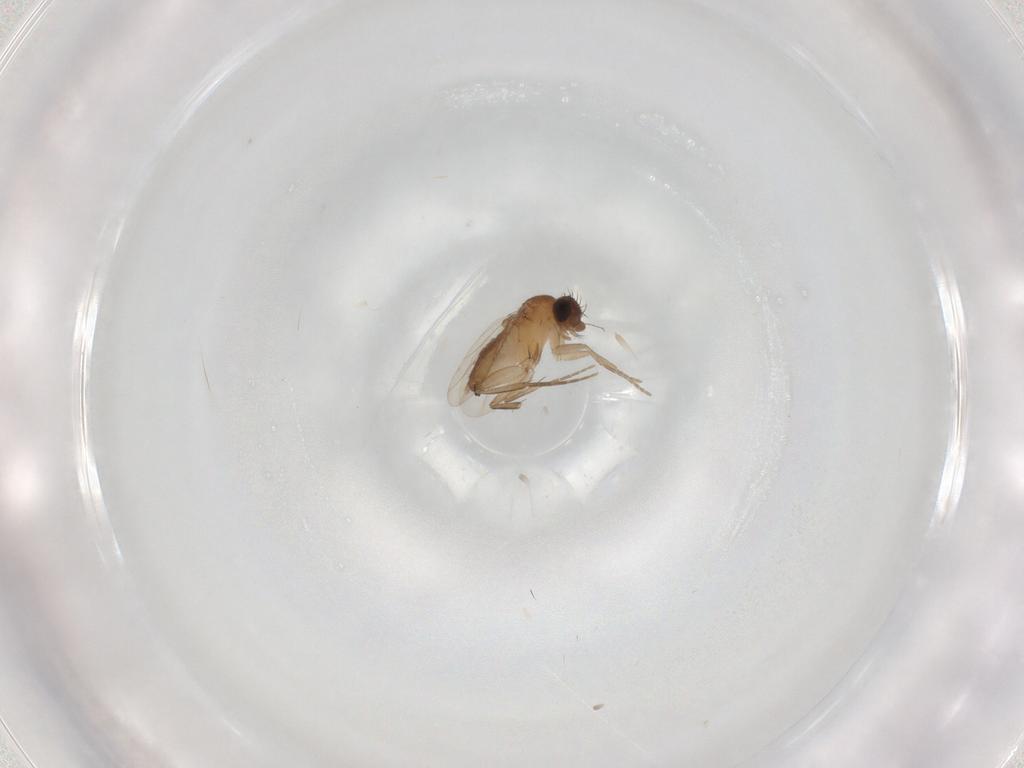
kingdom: Animalia
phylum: Arthropoda
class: Insecta
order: Diptera
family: Phoridae
